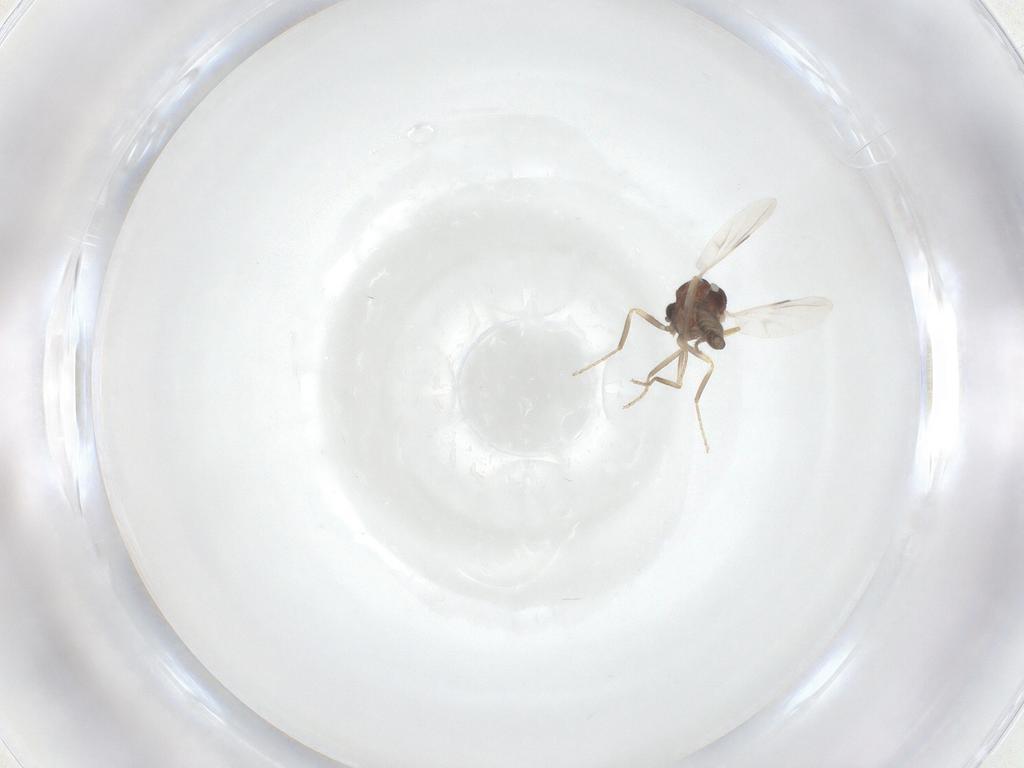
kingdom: Animalia
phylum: Arthropoda
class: Insecta
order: Diptera
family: Ceratopogonidae
